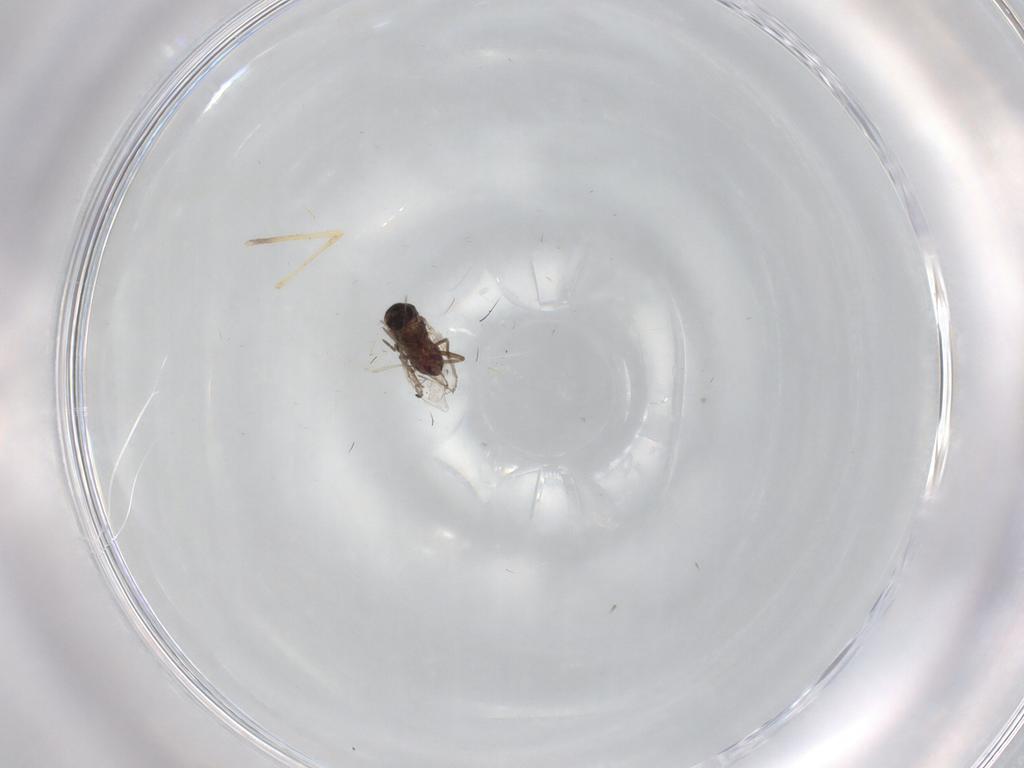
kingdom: Animalia
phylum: Arthropoda
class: Insecta
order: Diptera
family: Ceratopogonidae
